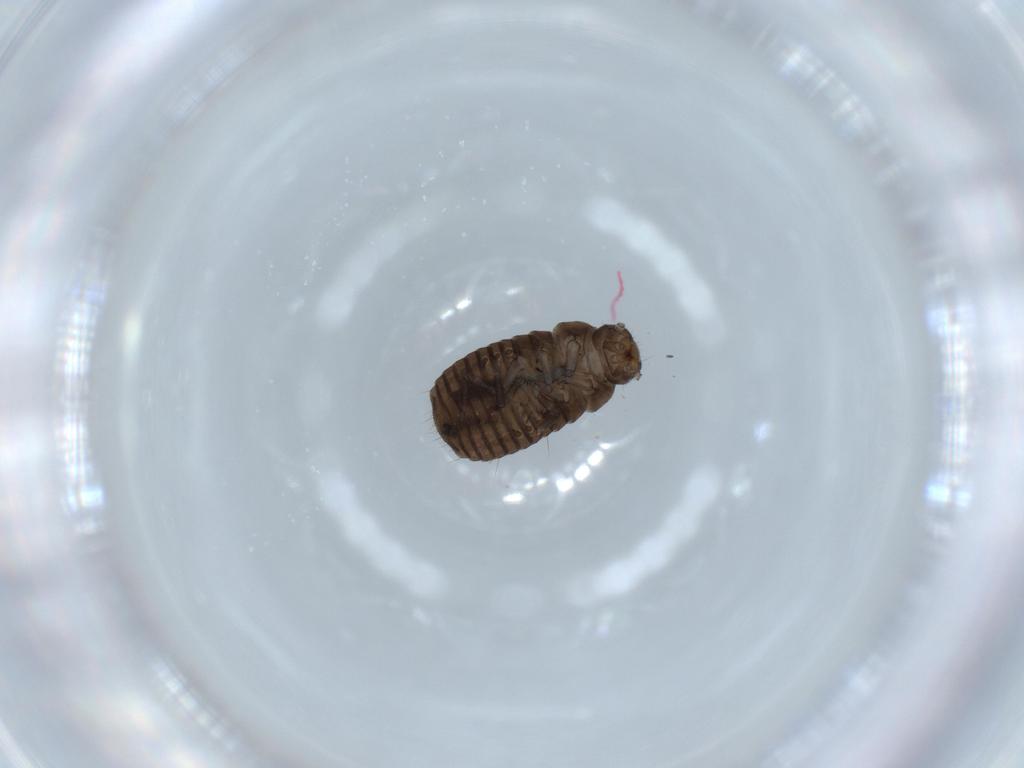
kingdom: Animalia
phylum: Arthropoda
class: Insecta
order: Coleoptera
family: Tenebrionidae
